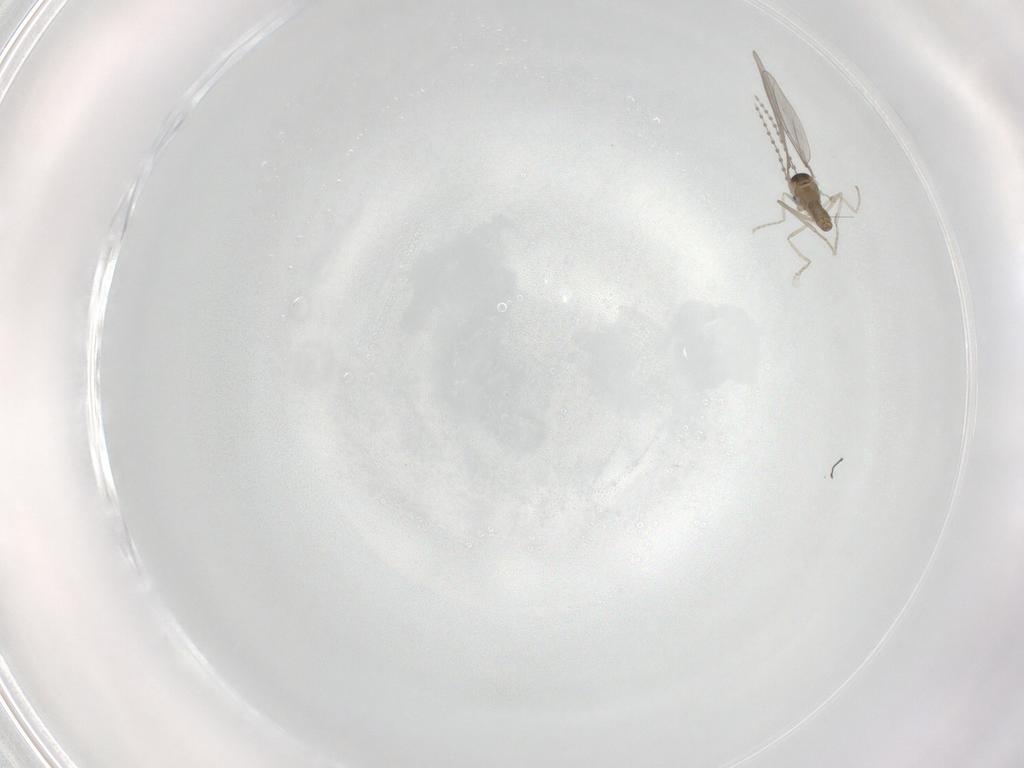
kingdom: Animalia
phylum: Arthropoda
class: Insecta
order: Diptera
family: Cecidomyiidae
